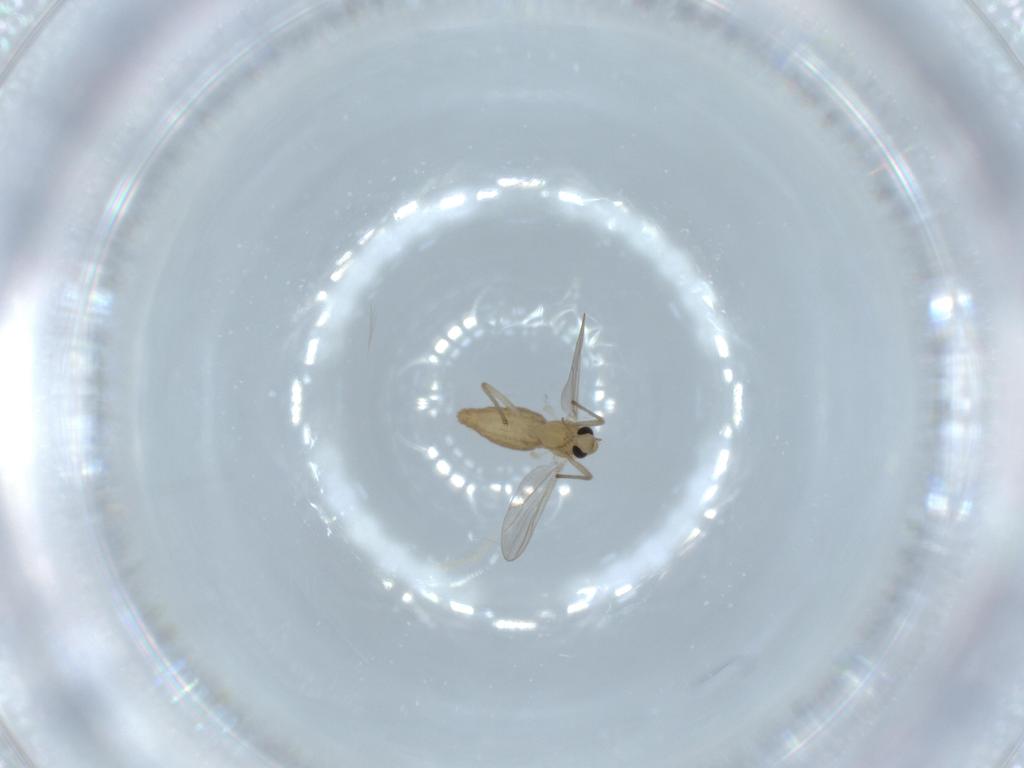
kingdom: Animalia
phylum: Arthropoda
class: Insecta
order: Diptera
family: Chironomidae
